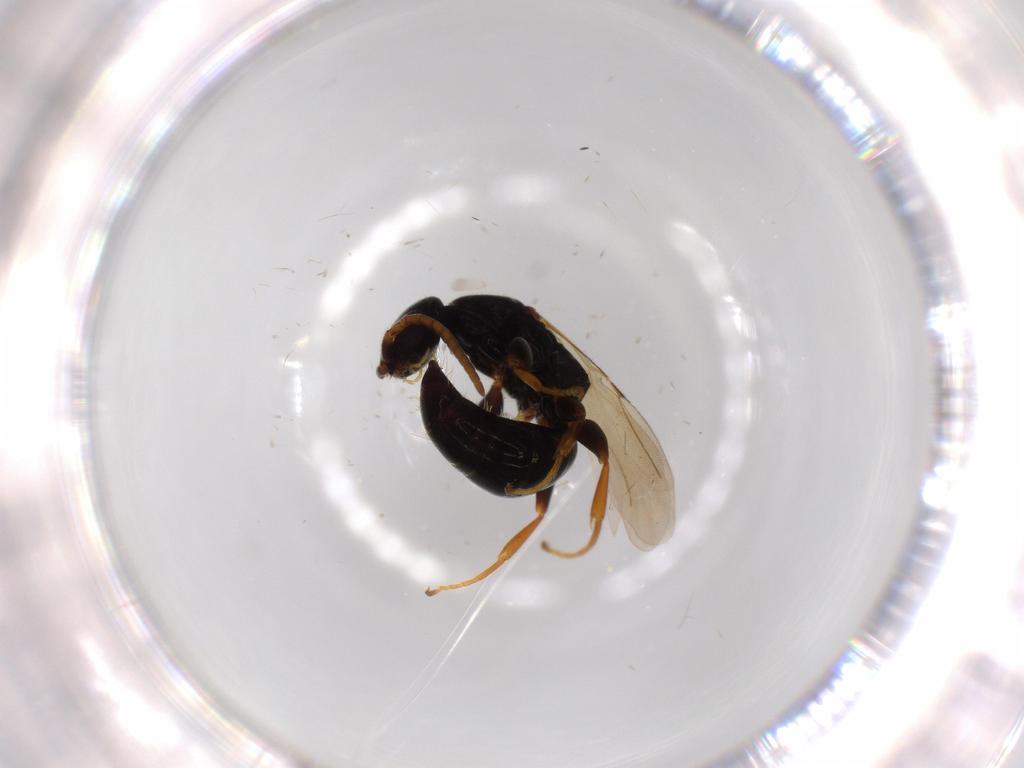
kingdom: Animalia
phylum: Arthropoda
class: Insecta
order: Hymenoptera
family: Bethylidae
